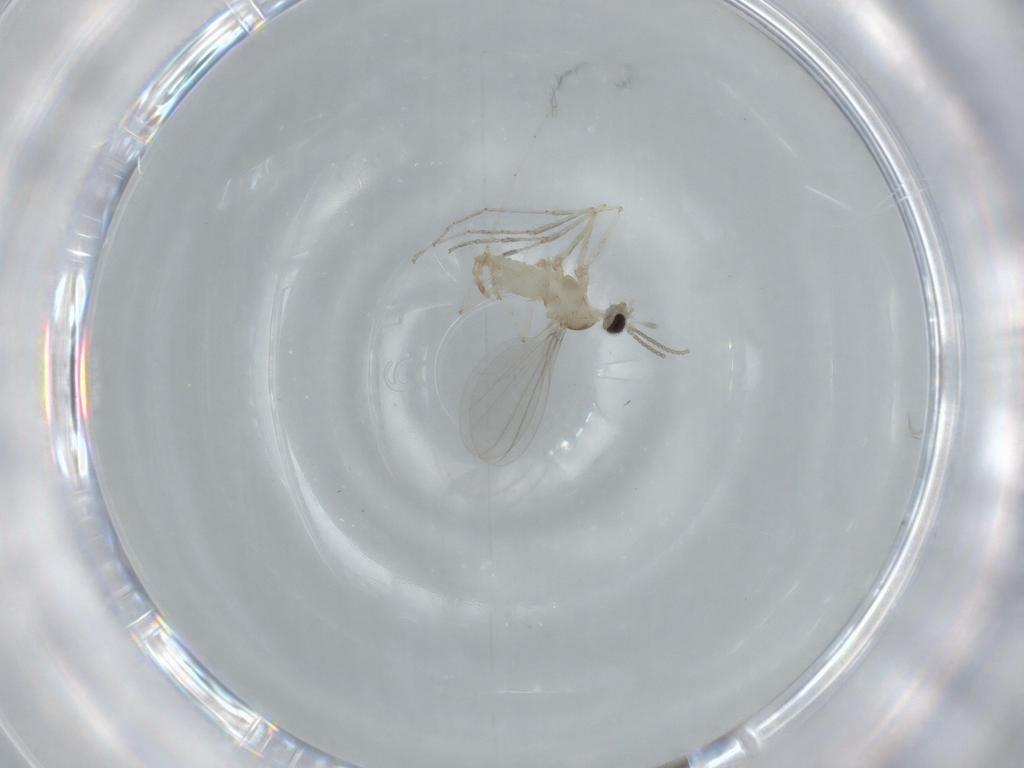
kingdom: Animalia
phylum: Arthropoda
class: Insecta
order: Diptera
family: Cecidomyiidae
